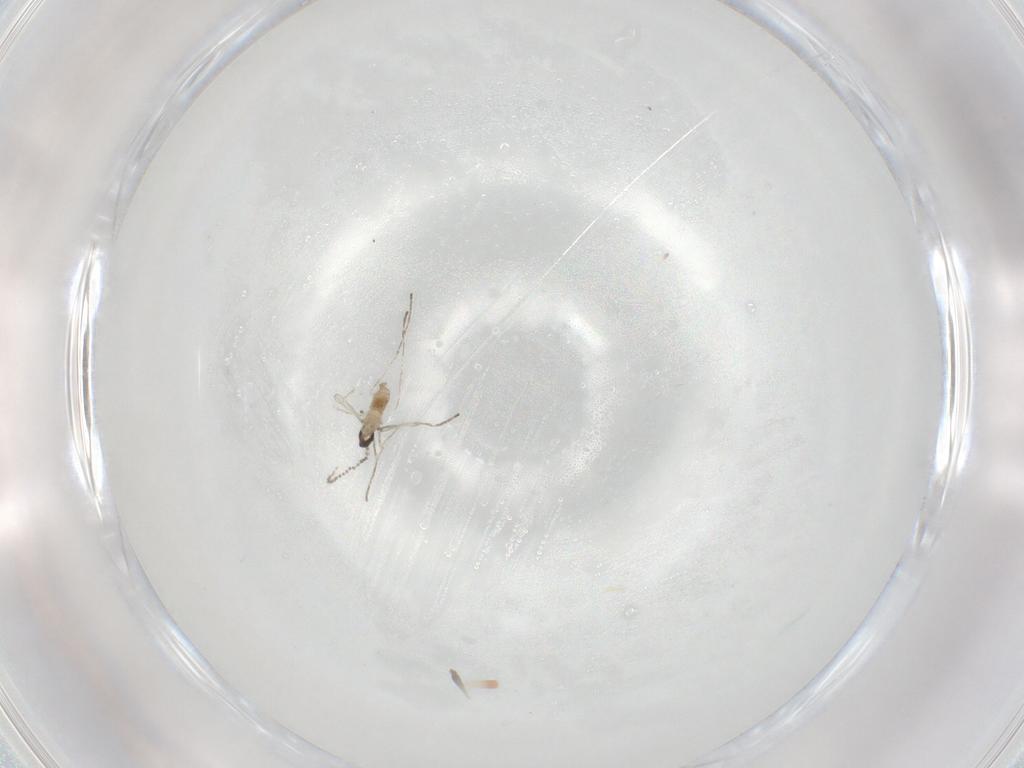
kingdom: Animalia
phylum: Arthropoda
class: Insecta
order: Diptera
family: Cecidomyiidae
